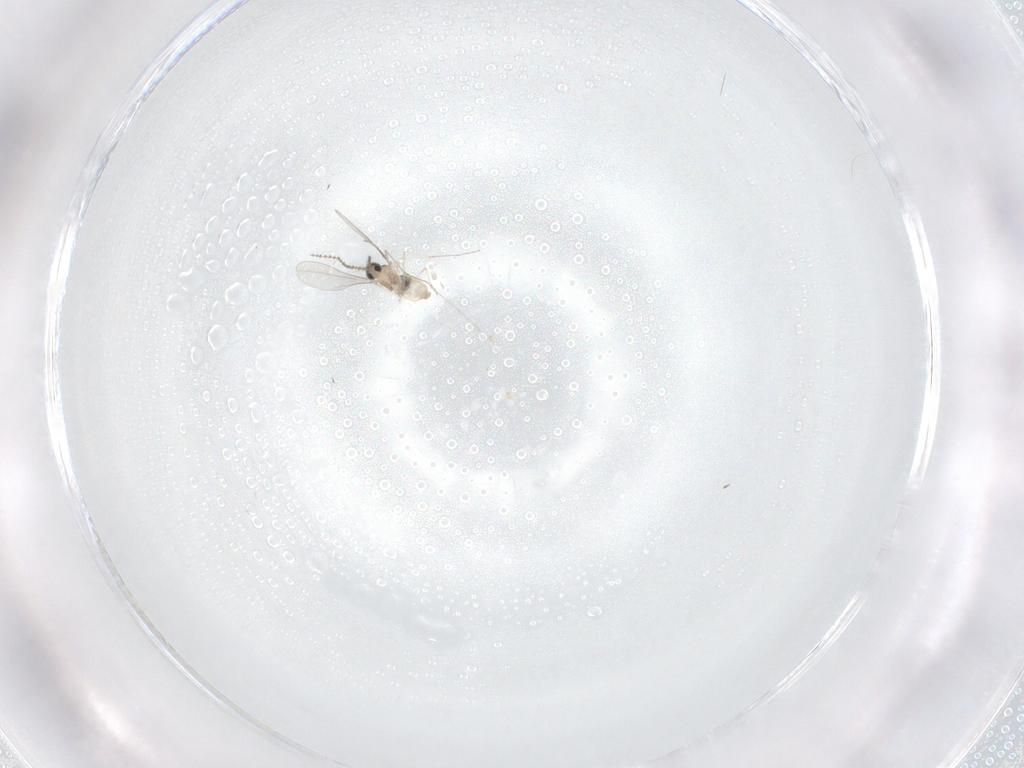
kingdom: Animalia
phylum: Arthropoda
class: Insecta
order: Diptera
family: Cecidomyiidae
